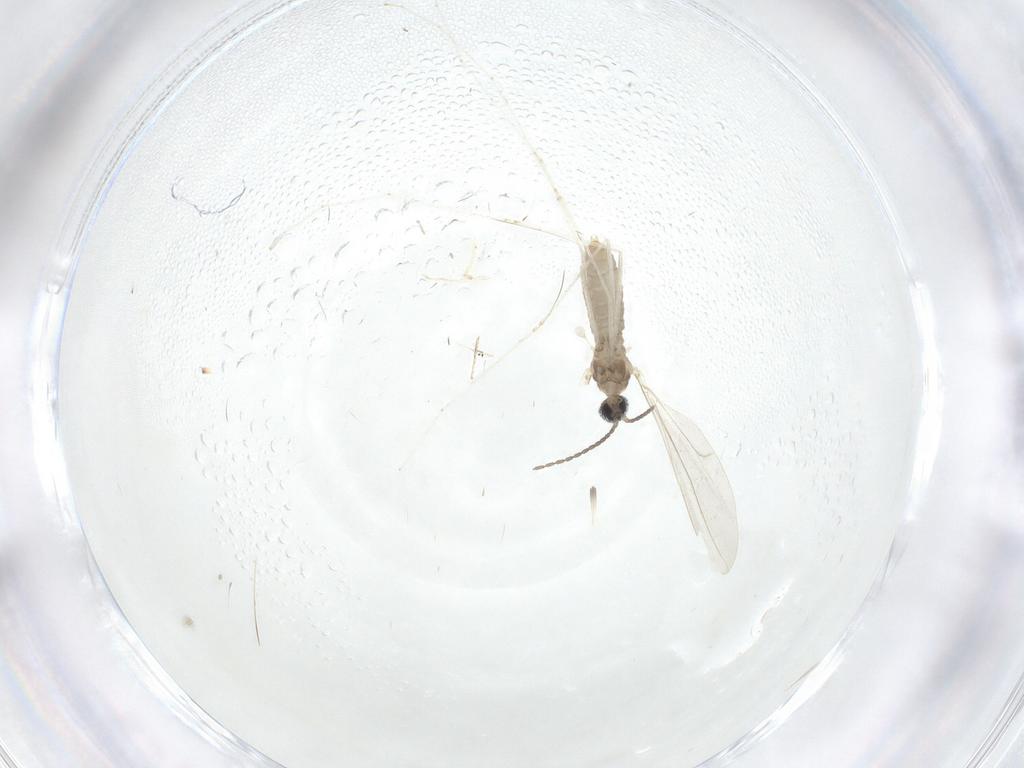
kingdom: Animalia
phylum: Arthropoda
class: Insecta
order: Diptera
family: Cecidomyiidae
